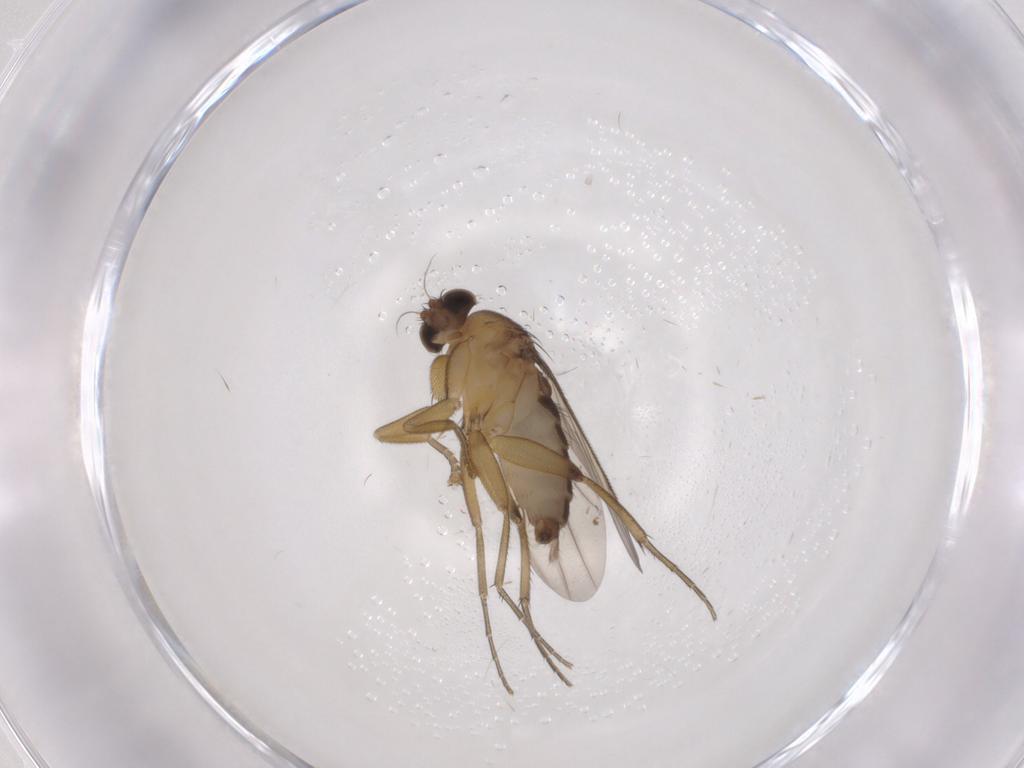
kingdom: Animalia
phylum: Arthropoda
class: Insecta
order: Diptera
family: Phoridae
